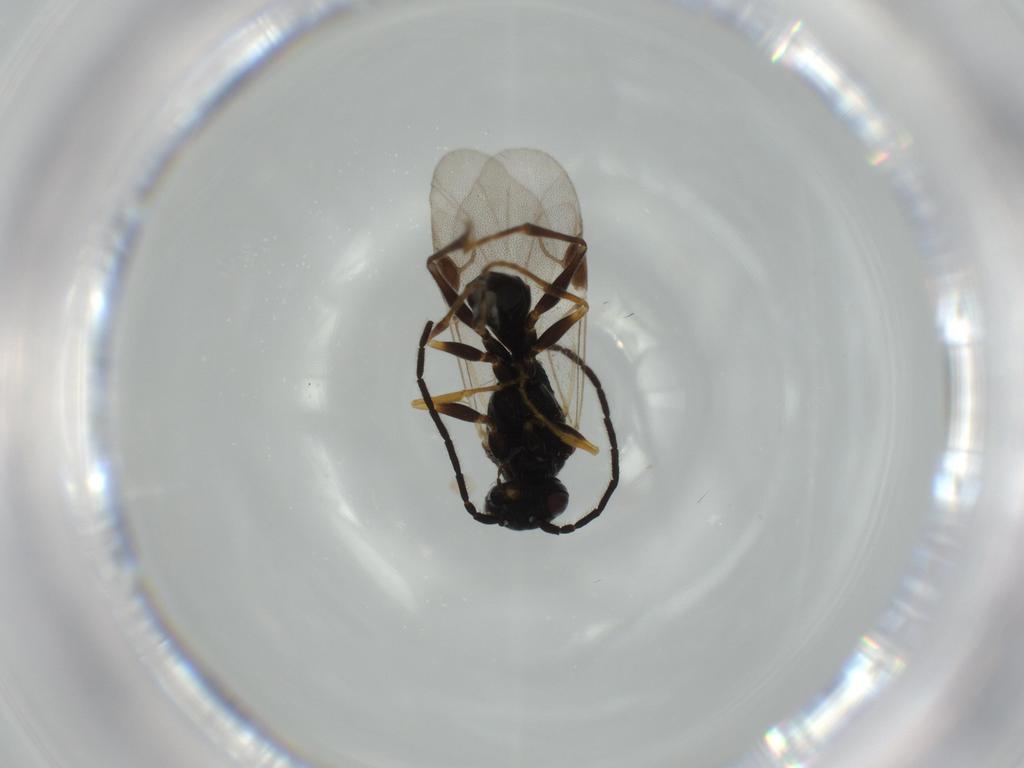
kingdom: Animalia
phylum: Arthropoda
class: Insecta
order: Hymenoptera
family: Dryinidae
